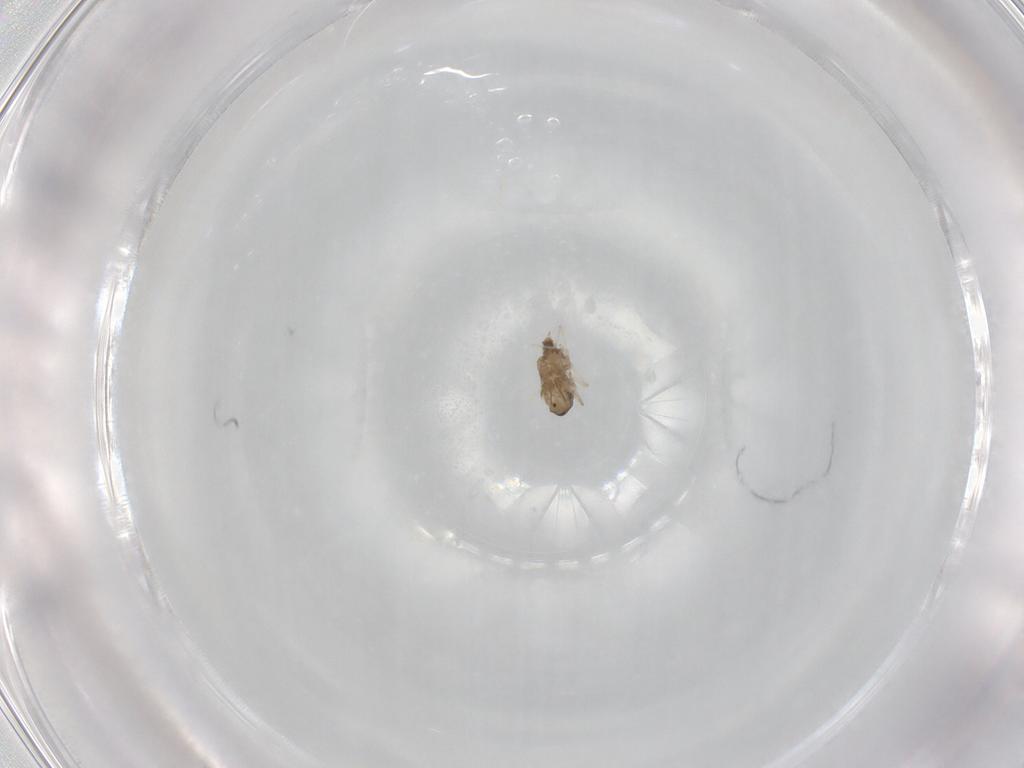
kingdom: Animalia
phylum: Arthropoda
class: Insecta
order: Diptera
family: Cecidomyiidae
